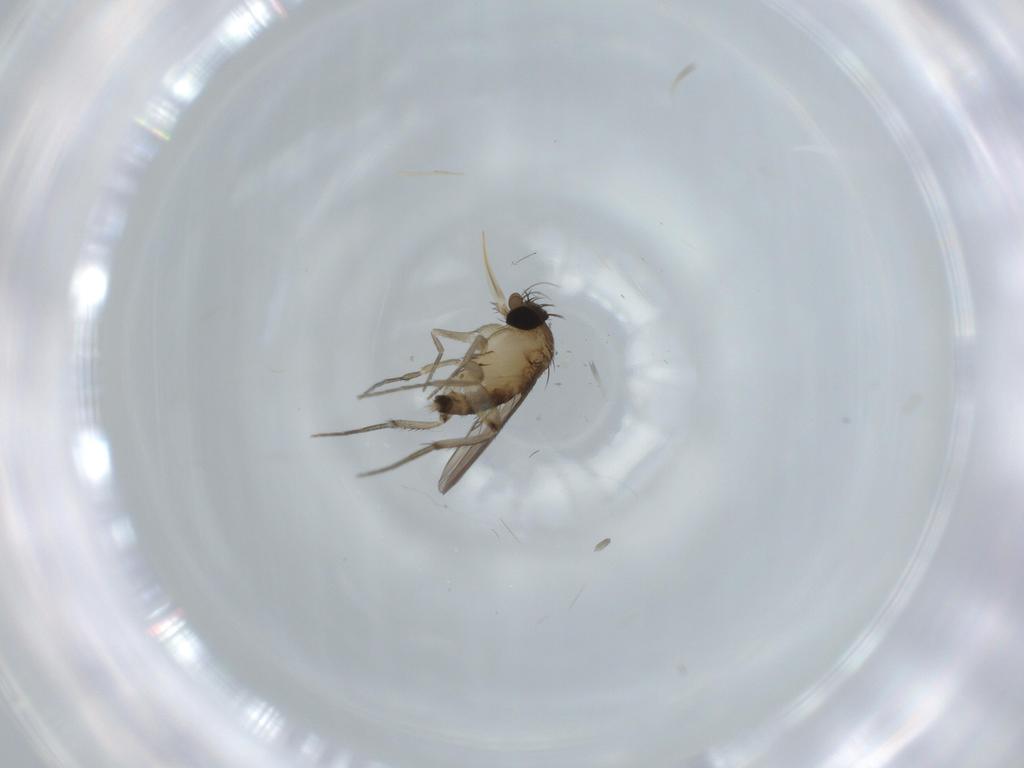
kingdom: Animalia
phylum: Arthropoda
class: Insecta
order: Diptera
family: Phoridae
